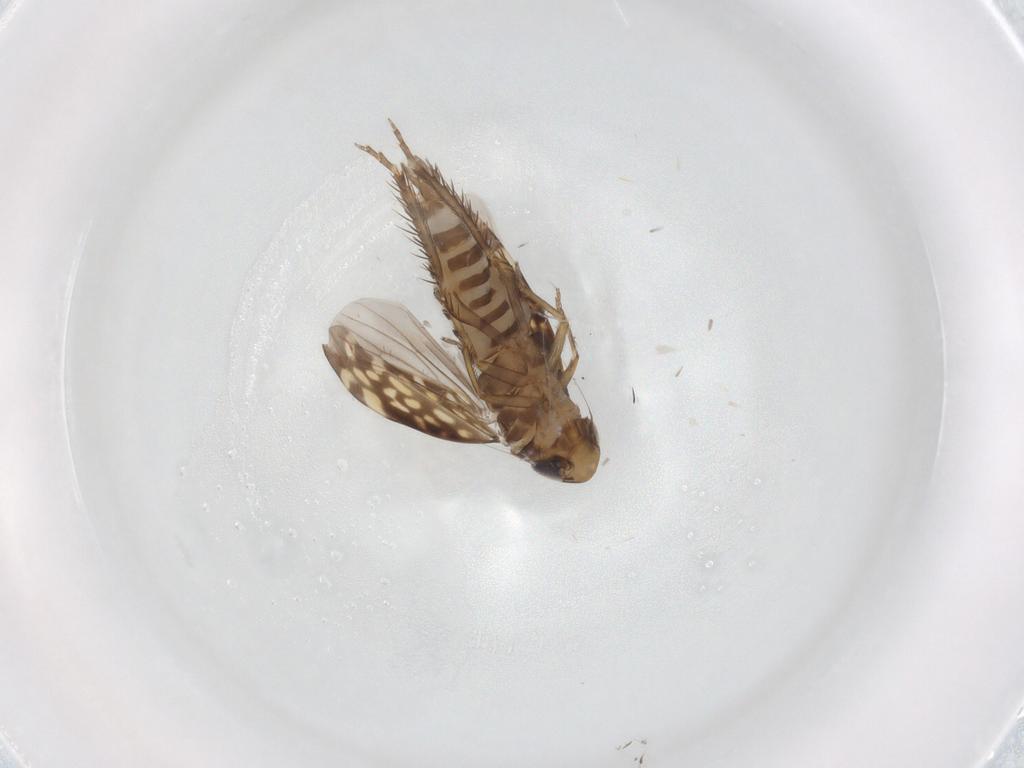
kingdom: Animalia
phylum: Arthropoda
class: Insecta
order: Hemiptera
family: Cicadellidae
